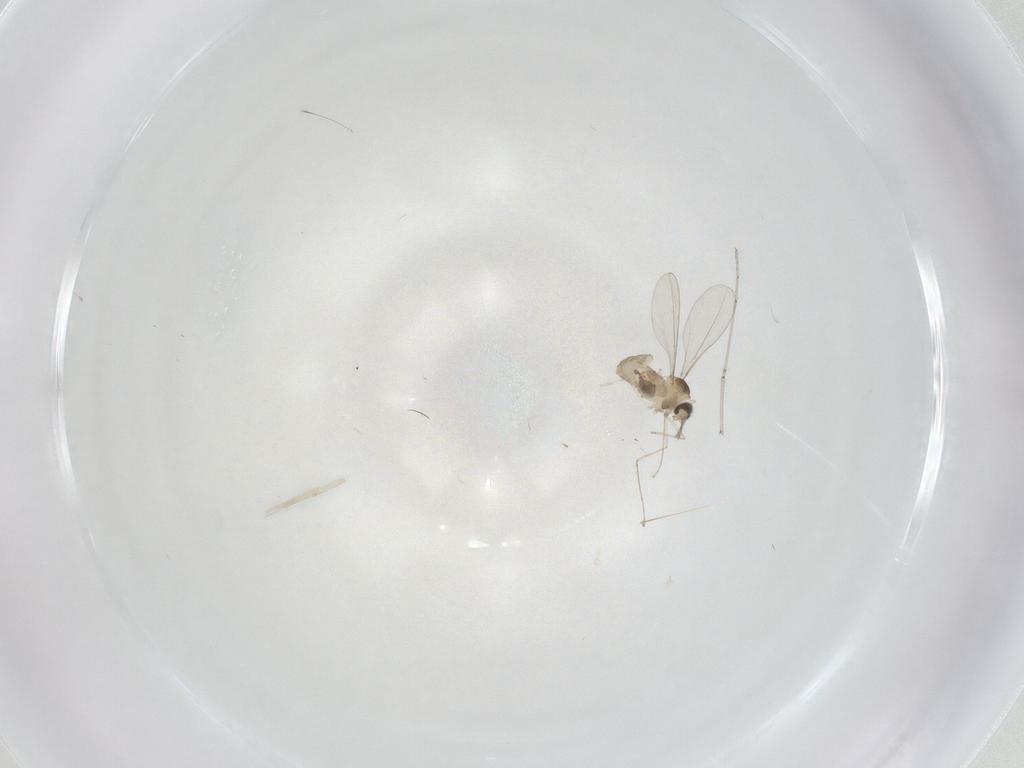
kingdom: Animalia
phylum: Arthropoda
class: Insecta
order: Diptera
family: Cecidomyiidae
